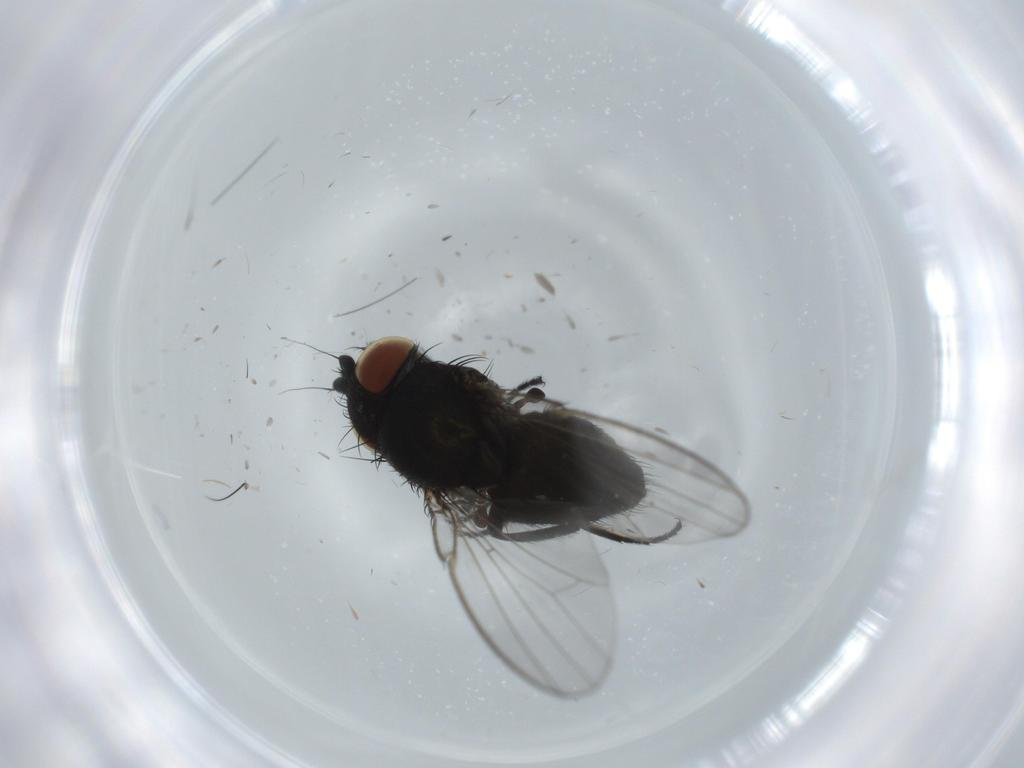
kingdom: Animalia
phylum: Arthropoda
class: Insecta
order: Diptera
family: Milichiidae
